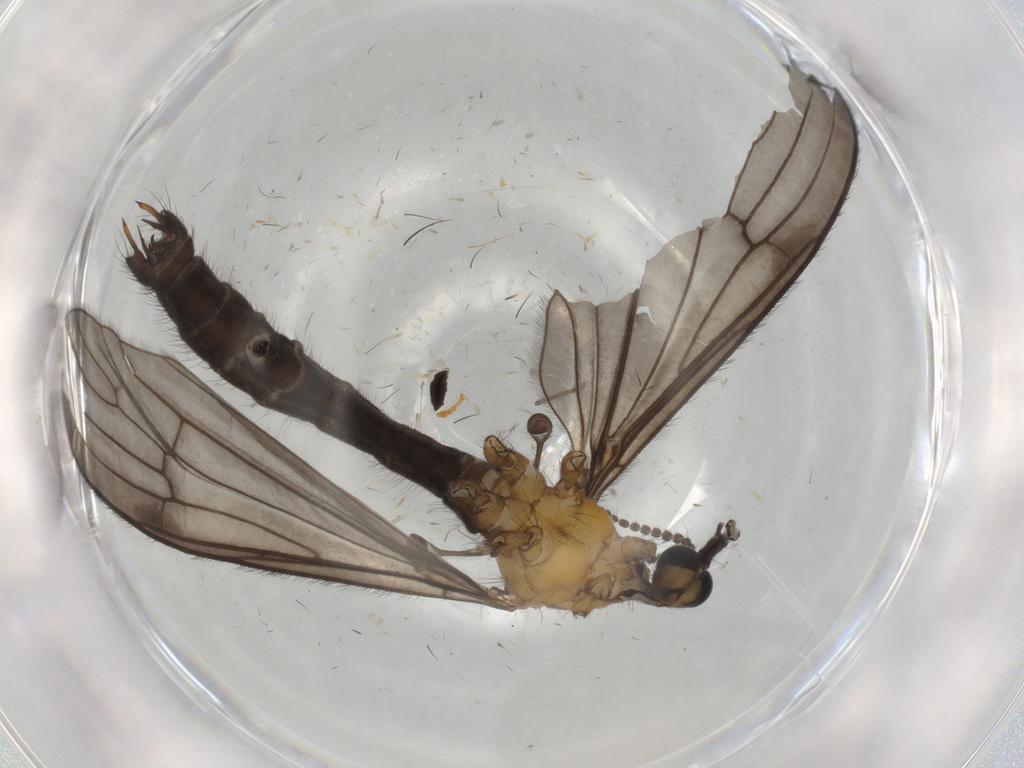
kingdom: Animalia
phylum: Arthropoda
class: Insecta
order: Diptera
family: Limoniidae
